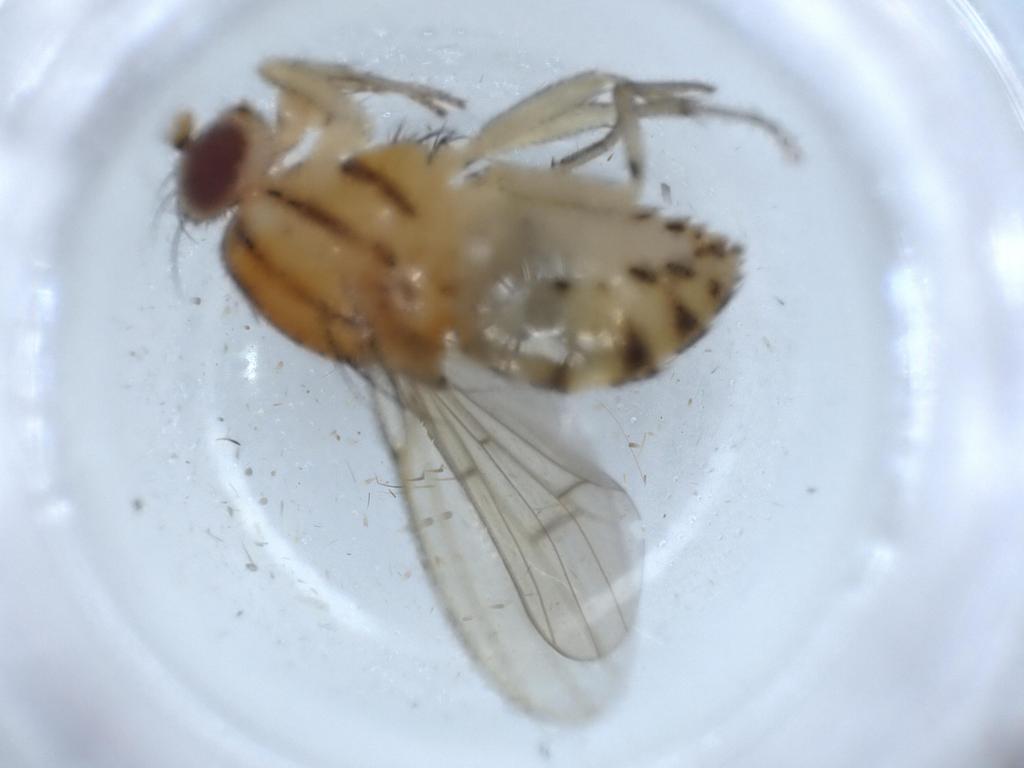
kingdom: Animalia
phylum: Arthropoda
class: Insecta
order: Diptera
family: Lauxaniidae
